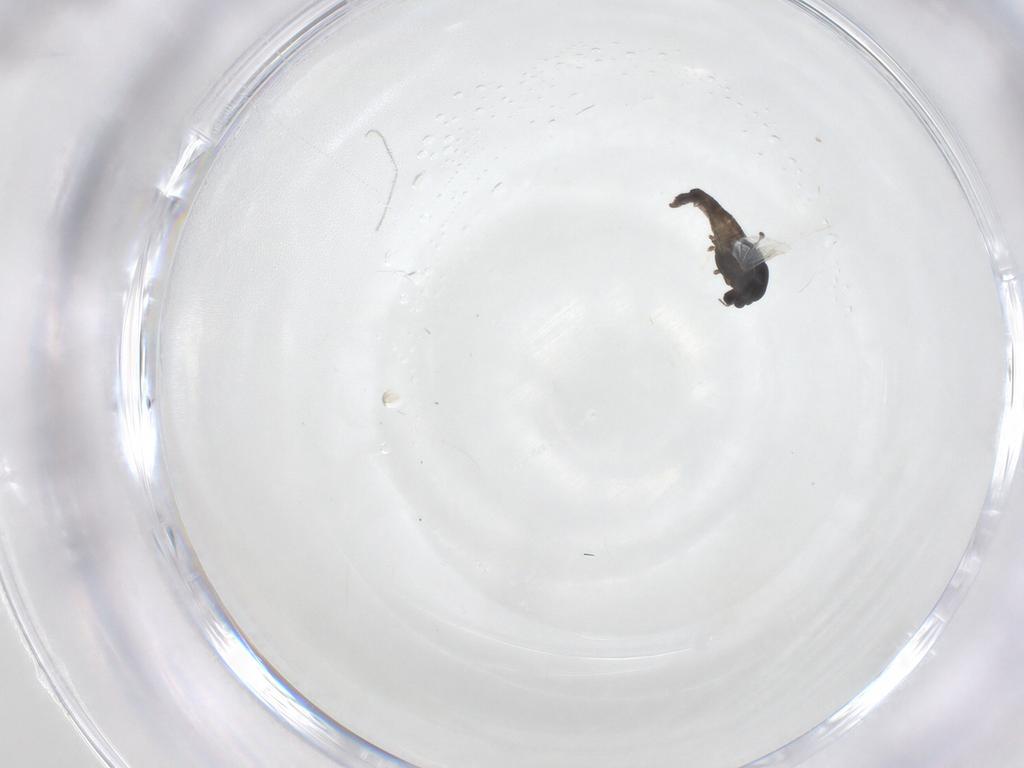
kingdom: Animalia
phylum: Arthropoda
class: Insecta
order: Diptera
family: Chironomidae
